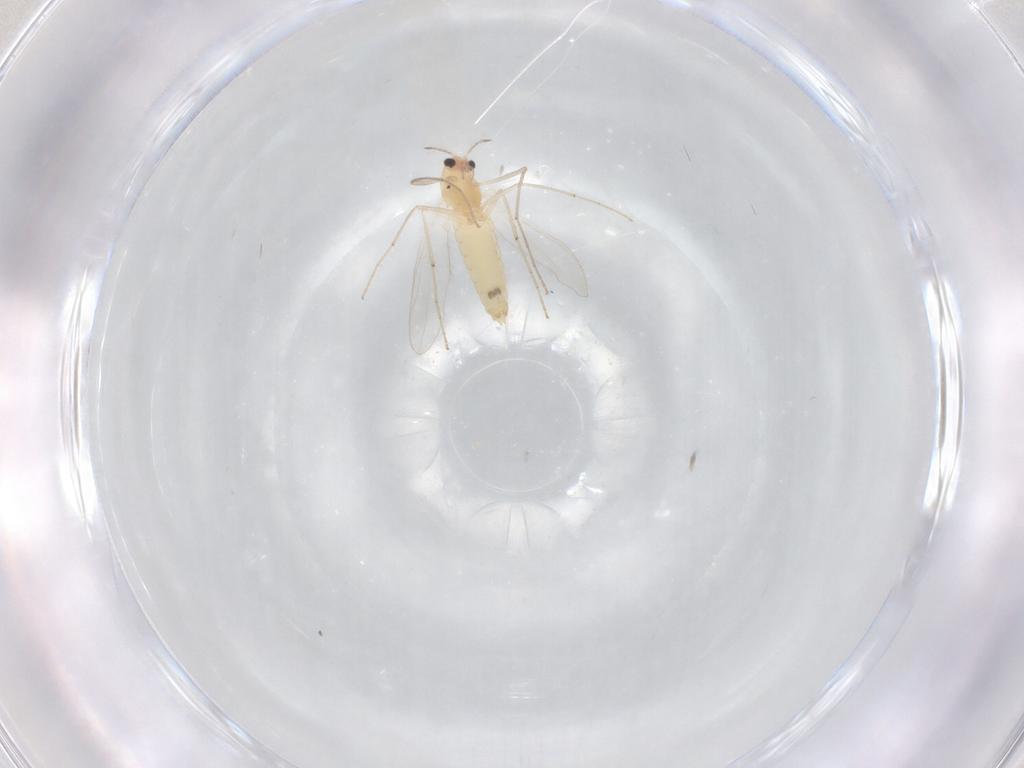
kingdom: Animalia
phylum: Arthropoda
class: Insecta
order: Diptera
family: Chironomidae
